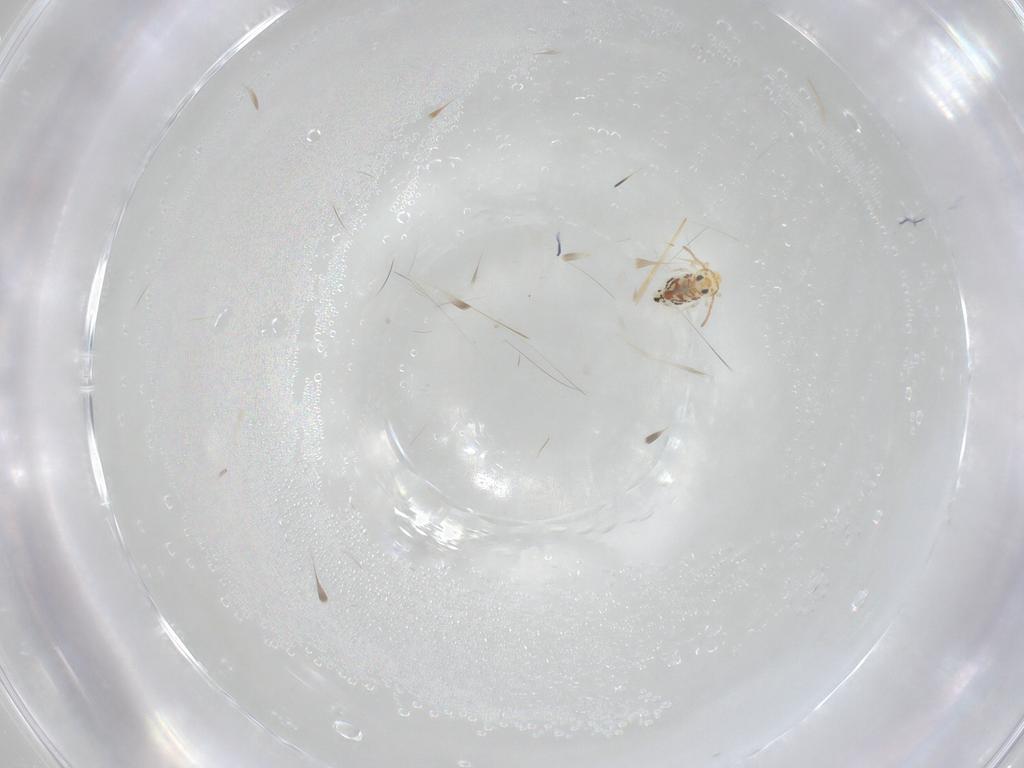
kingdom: Animalia
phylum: Arthropoda
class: Collembola
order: Symphypleona
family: Bourletiellidae
